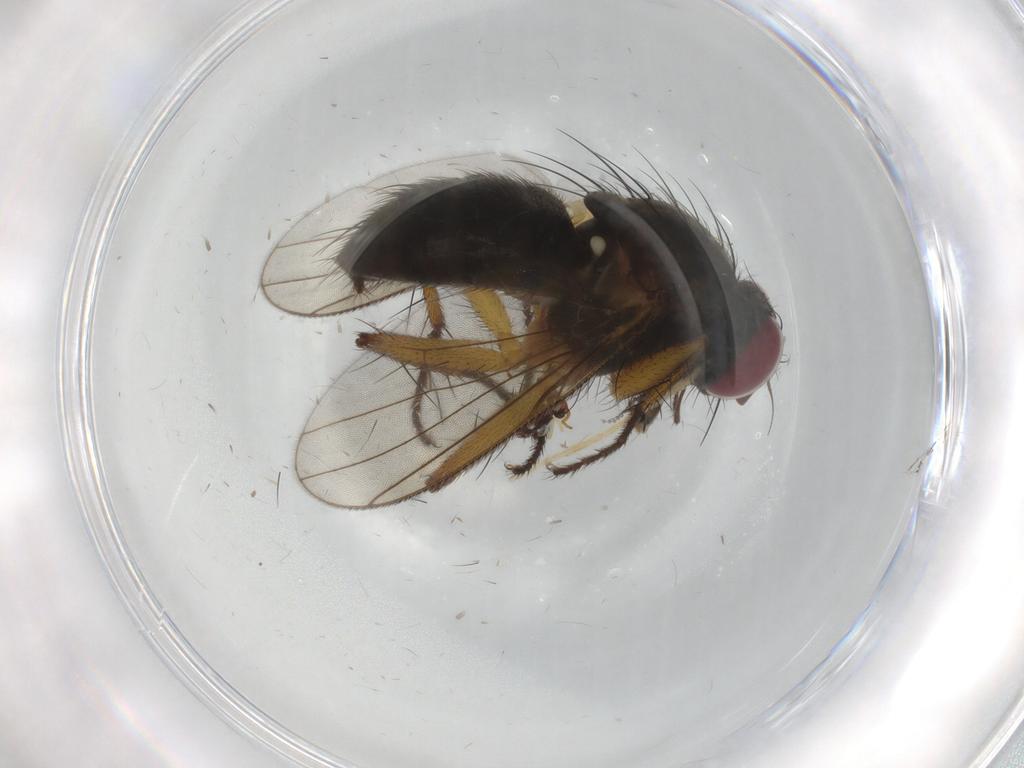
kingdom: Animalia
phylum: Arthropoda
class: Insecta
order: Diptera
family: Muscidae
